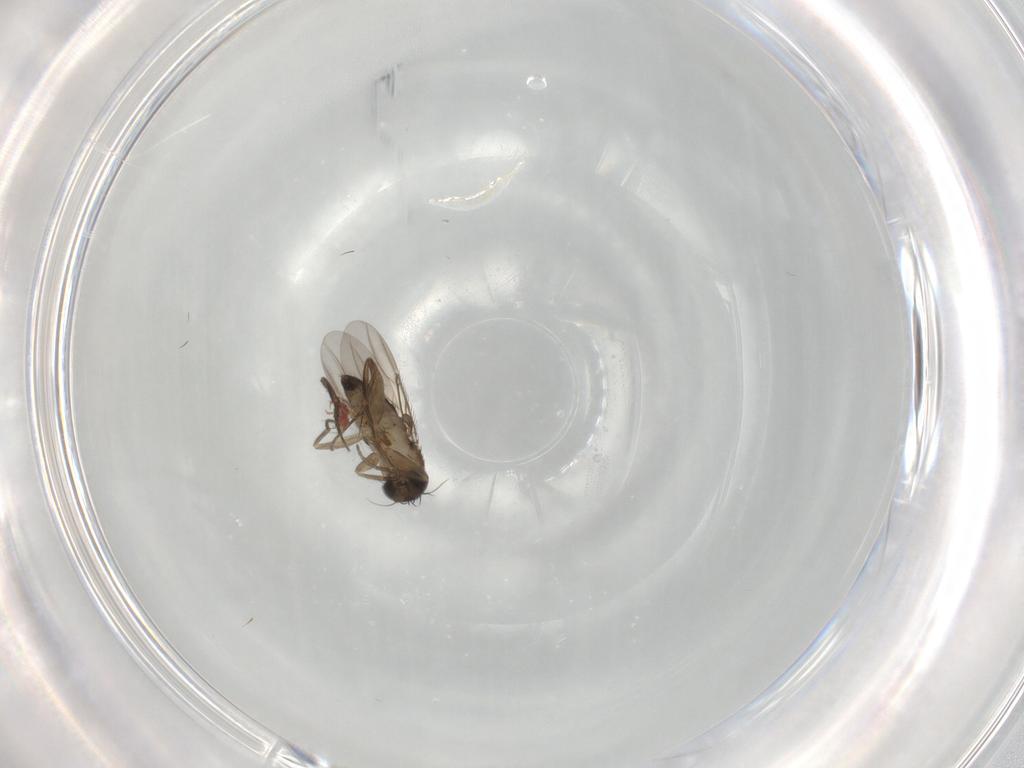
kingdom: Animalia
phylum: Arthropoda
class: Insecta
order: Diptera
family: Phoridae
